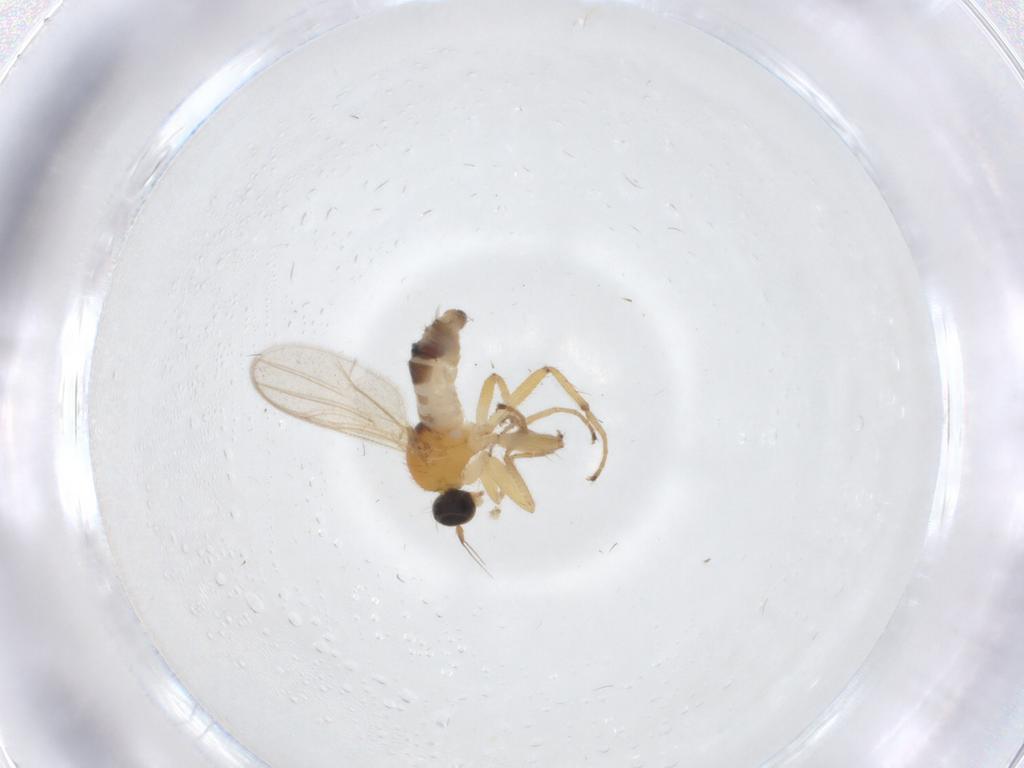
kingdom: Animalia
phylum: Arthropoda
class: Insecta
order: Diptera
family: Hybotidae
